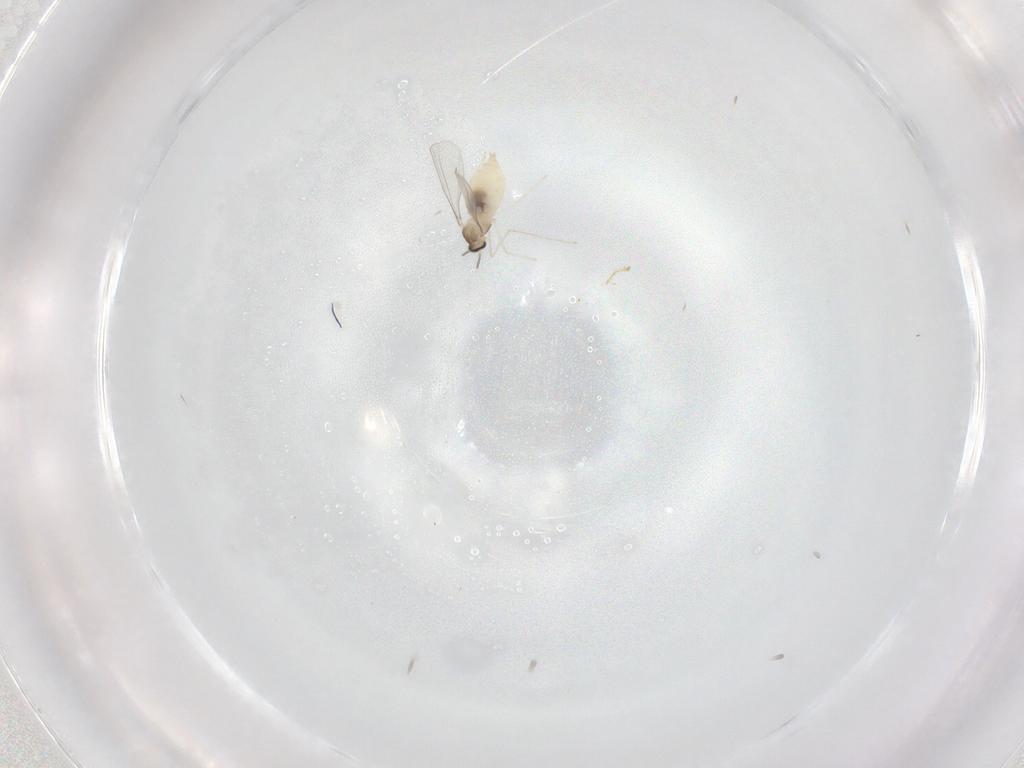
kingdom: Animalia
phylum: Arthropoda
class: Insecta
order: Diptera
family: Cecidomyiidae
